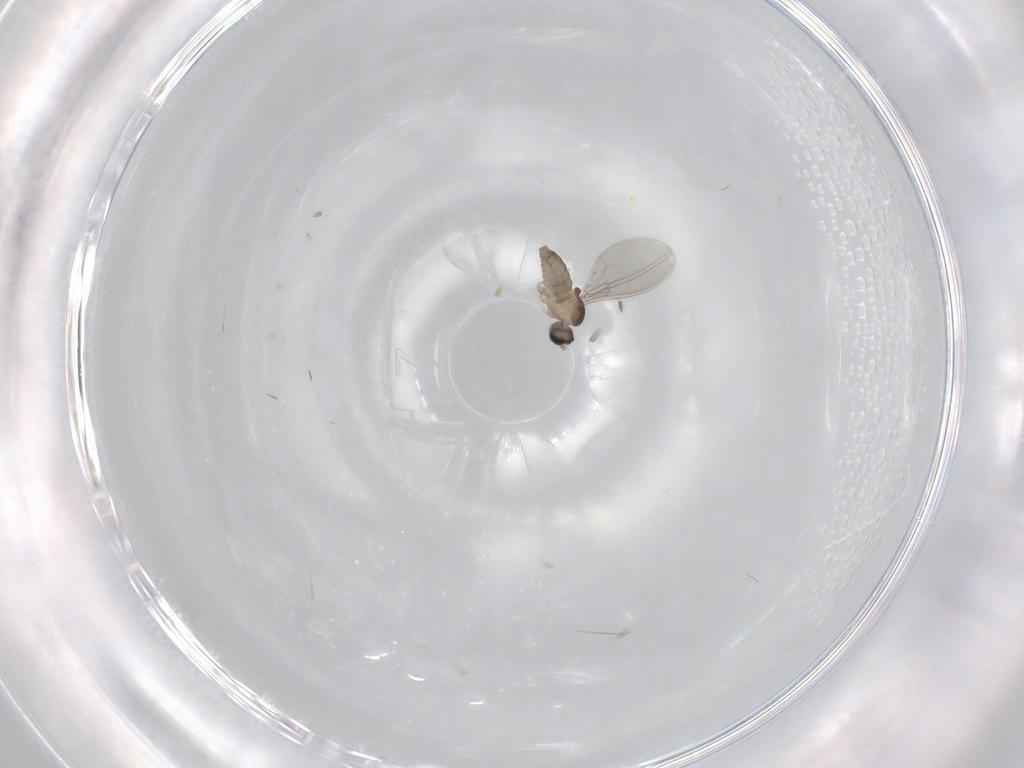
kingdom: Animalia
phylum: Arthropoda
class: Insecta
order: Diptera
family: Cecidomyiidae
